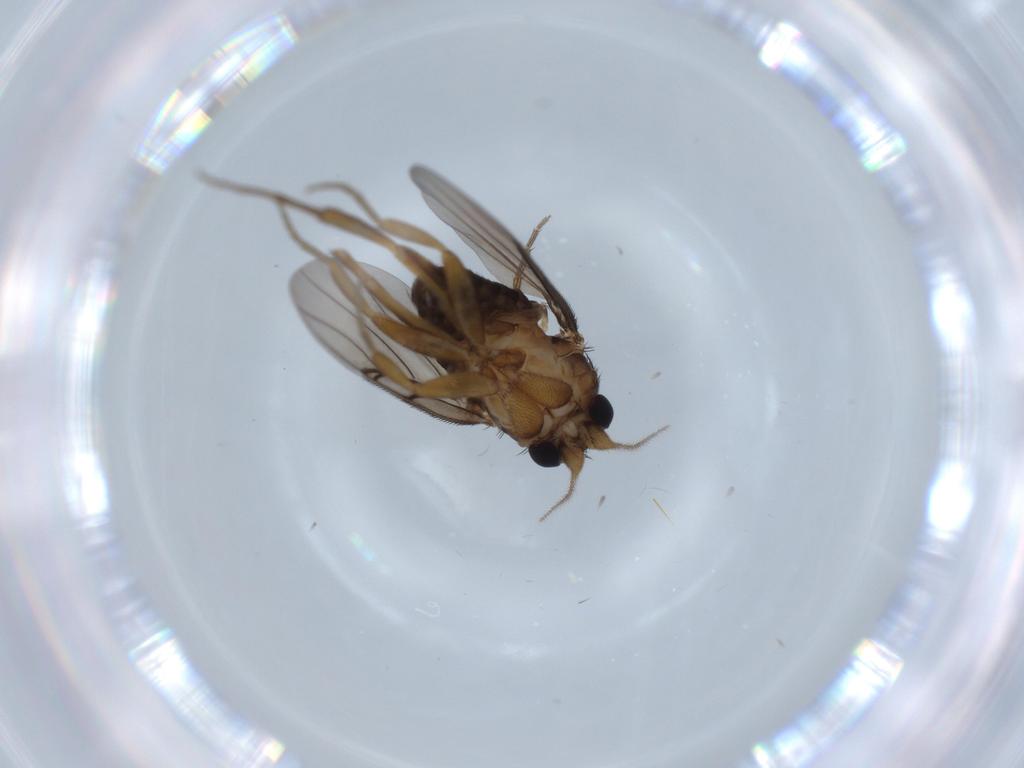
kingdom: Animalia
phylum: Arthropoda
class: Insecta
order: Diptera
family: Phoridae
